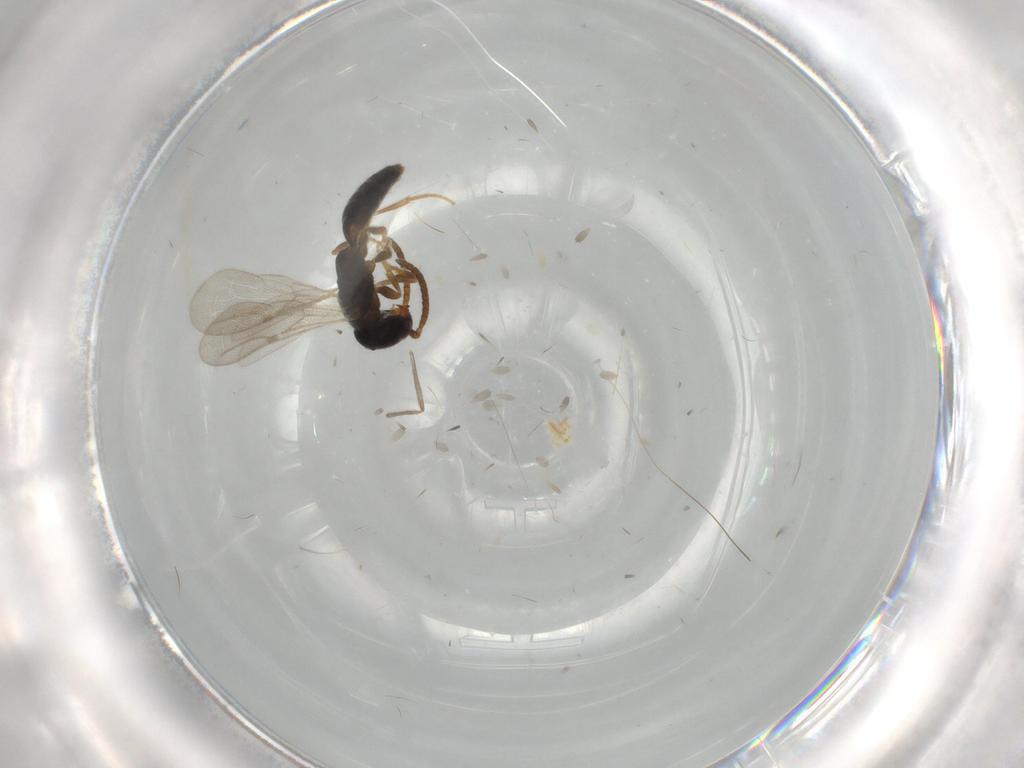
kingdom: Animalia
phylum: Arthropoda
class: Insecta
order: Hymenoptera
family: Bethylidae
